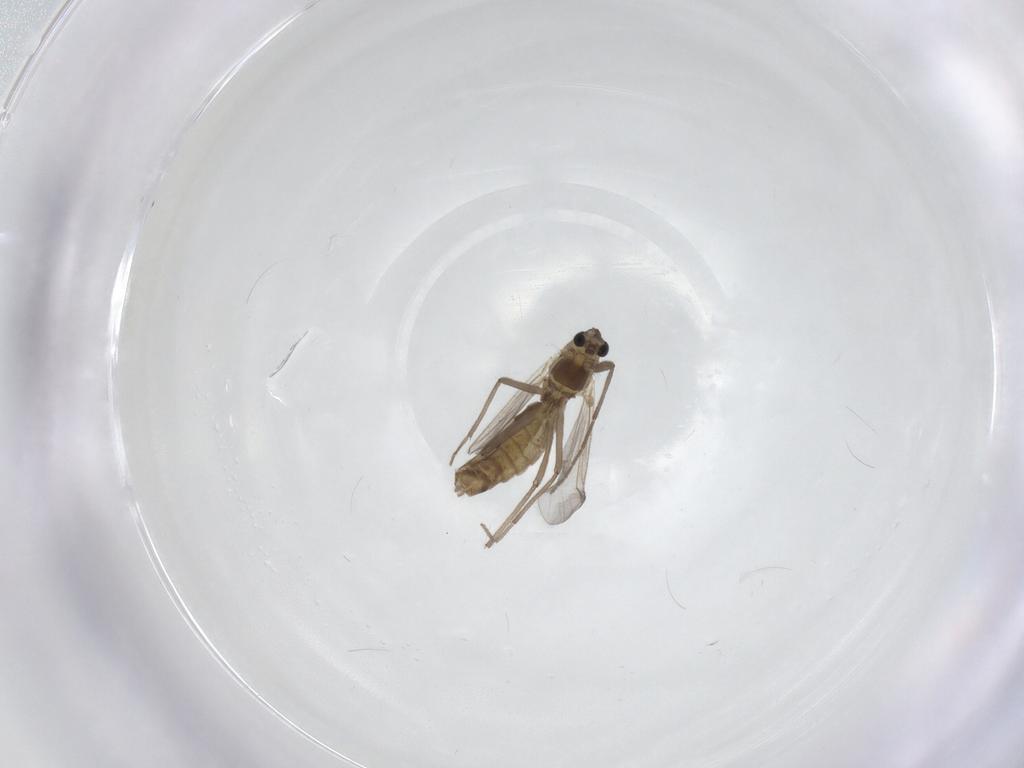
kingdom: Animalia
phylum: Arthropoda
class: Insecta
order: Diptera
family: Chironomidae
